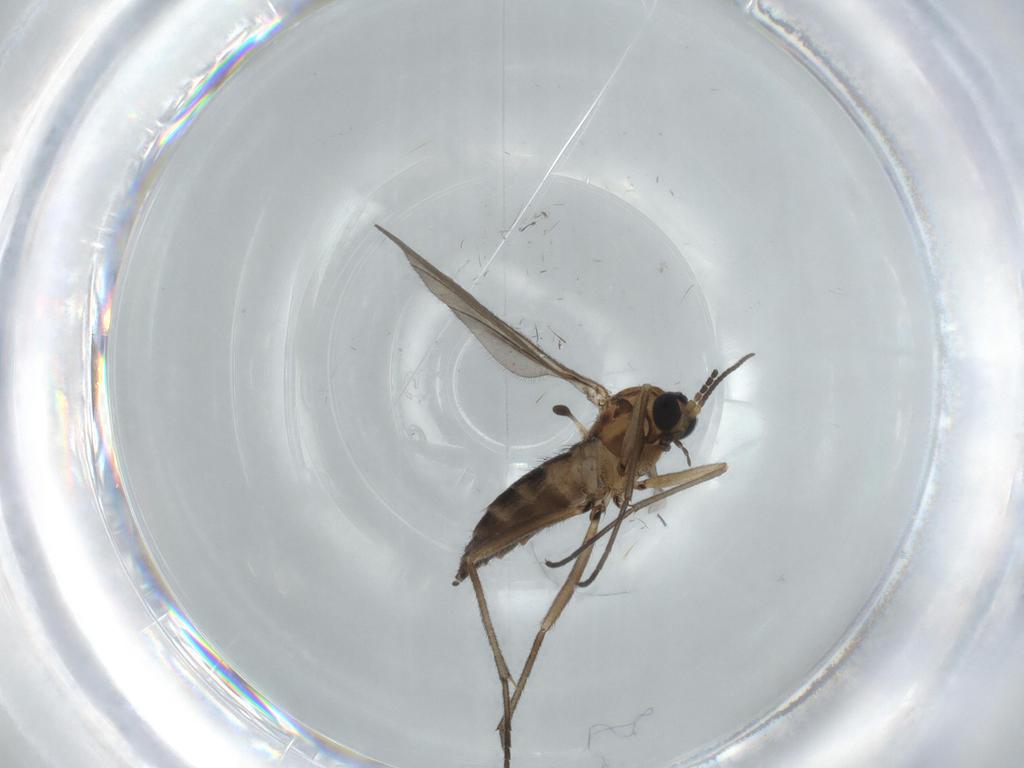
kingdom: Animalia
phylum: Arthropoda
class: Insecta
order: Diptera
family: Sciaridae
